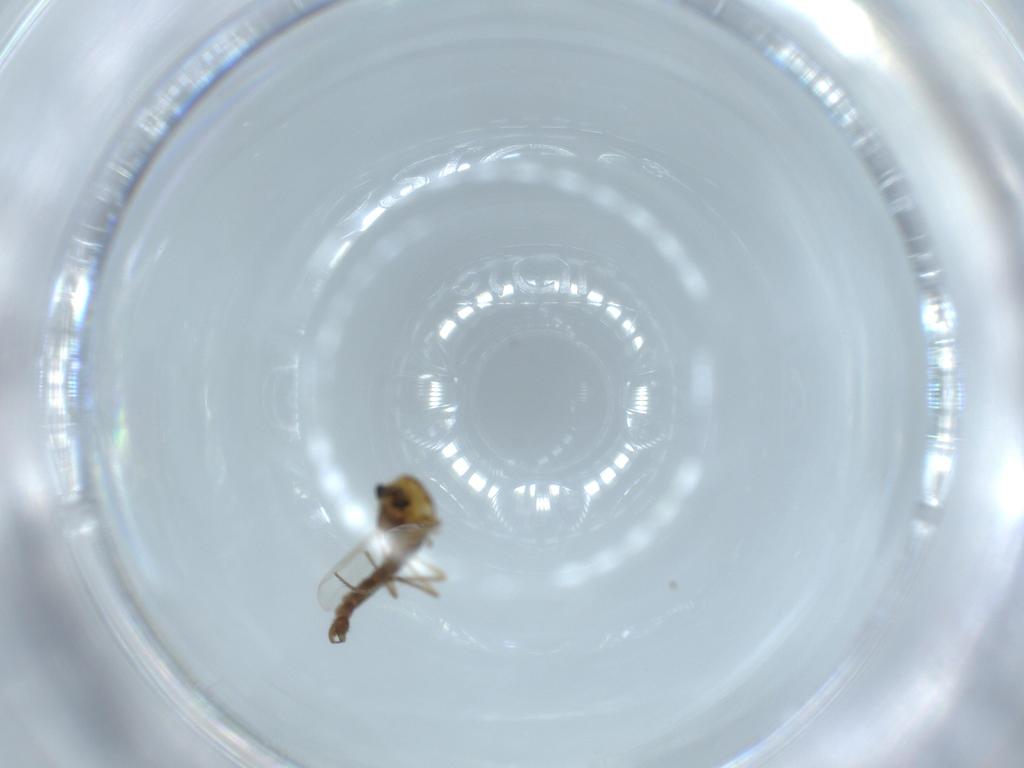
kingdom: Animalia
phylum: Arthropoda
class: Insecta
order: Diptera
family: Chironomidae
